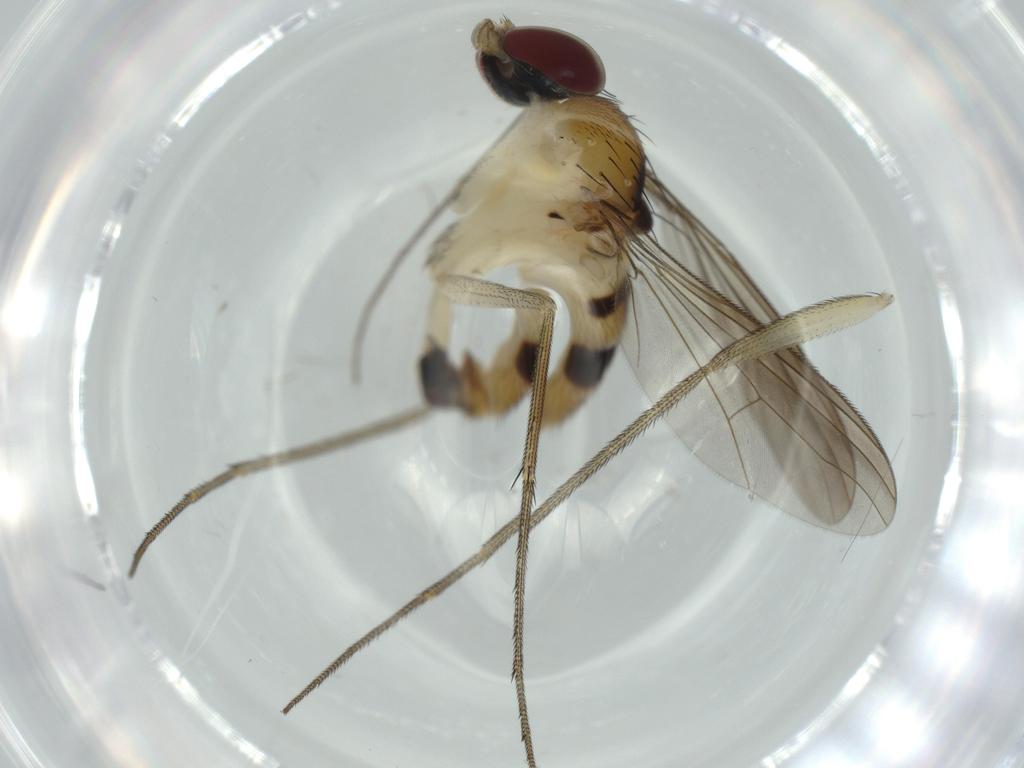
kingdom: Animalia
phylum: Arthropoda
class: Insecta
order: Diptera
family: Dolichopodidae
